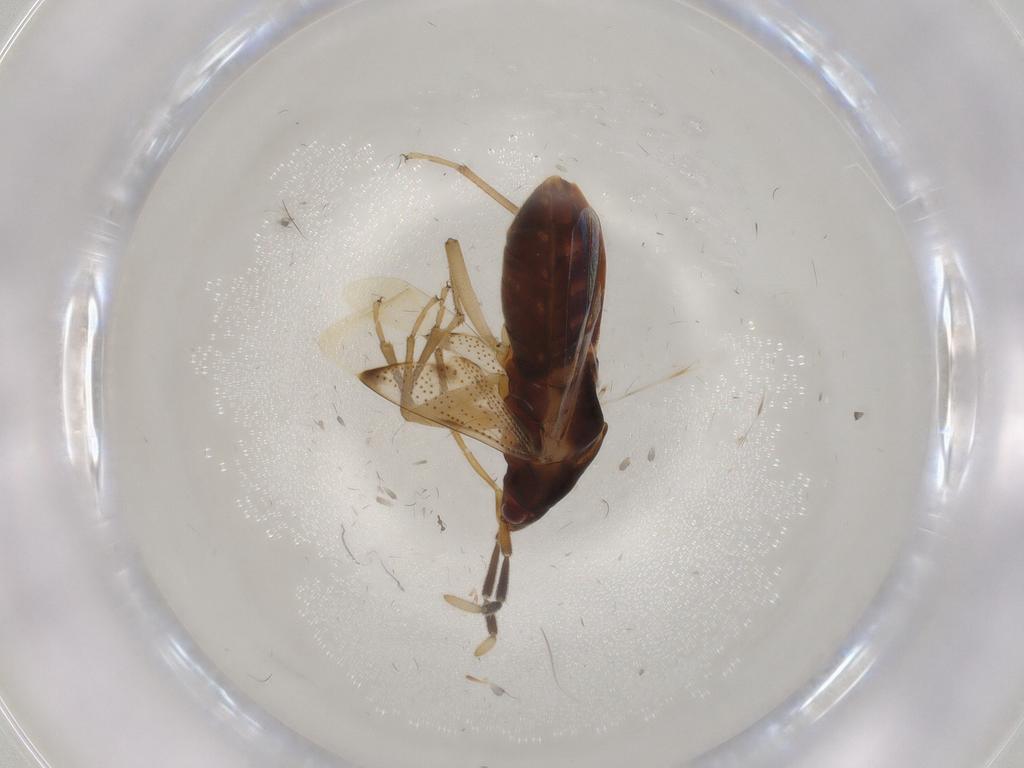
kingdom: Animalia
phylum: Arthropoda
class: Insecta
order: Hemiptera
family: Rhyparochromidae
